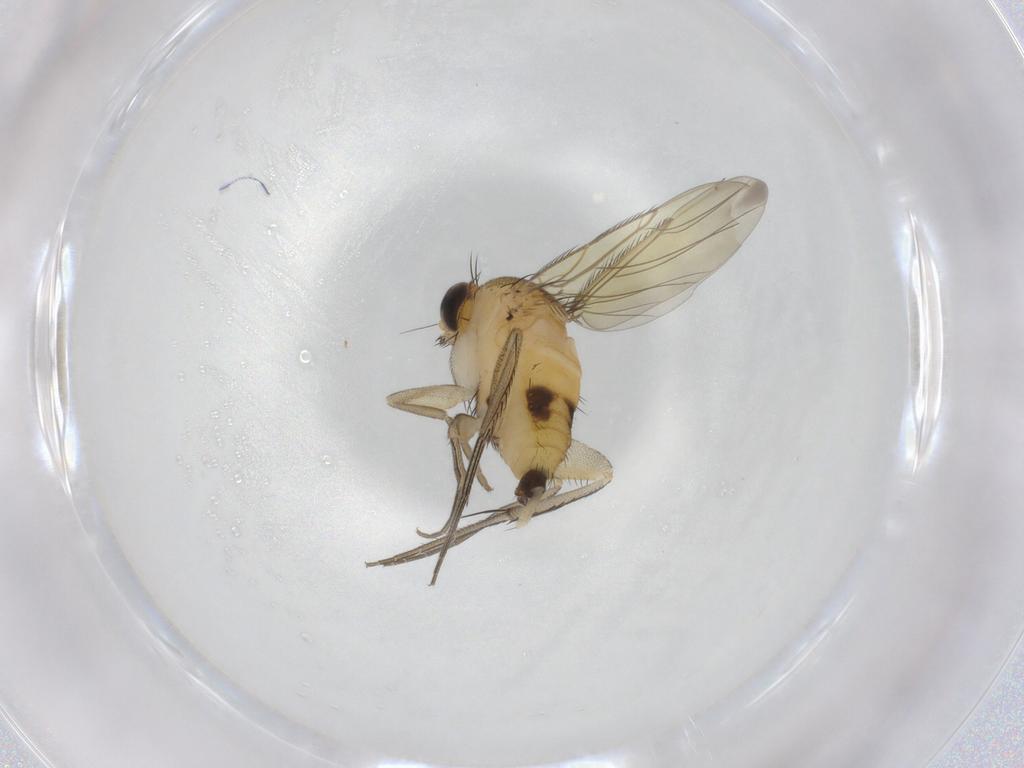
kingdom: Animalia
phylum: Arthropoda
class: Insecta
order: Diptera
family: Phoridae
